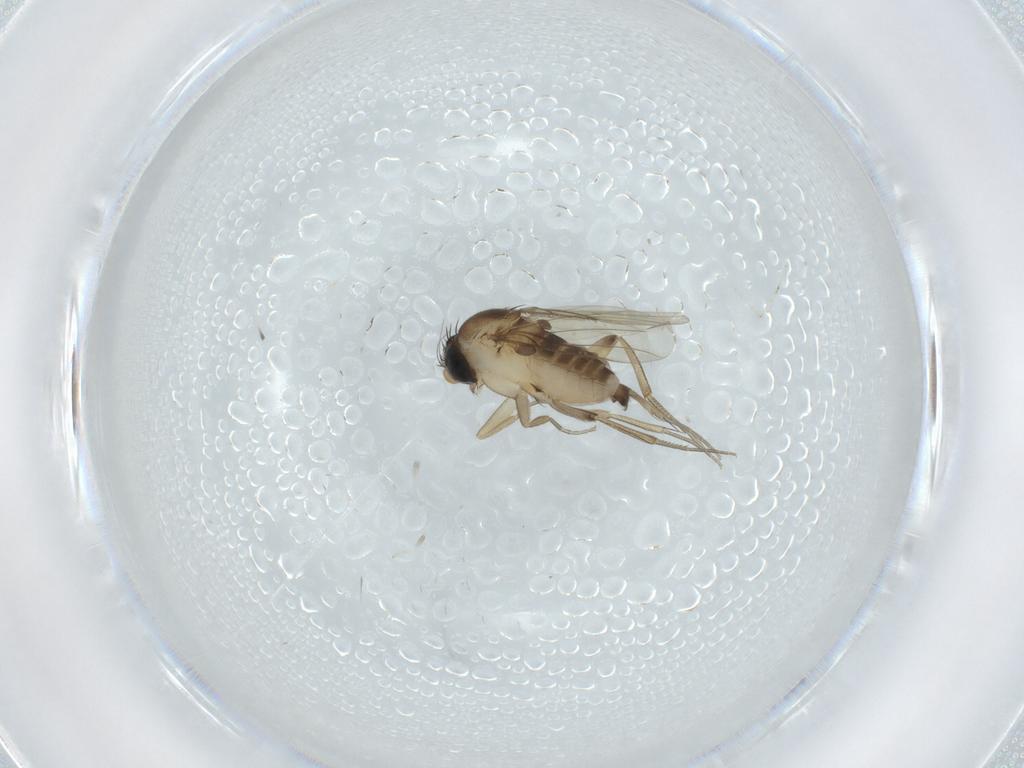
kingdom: Animalia
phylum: Arthropoda
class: Insecta
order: Diptera
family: Phoridae
